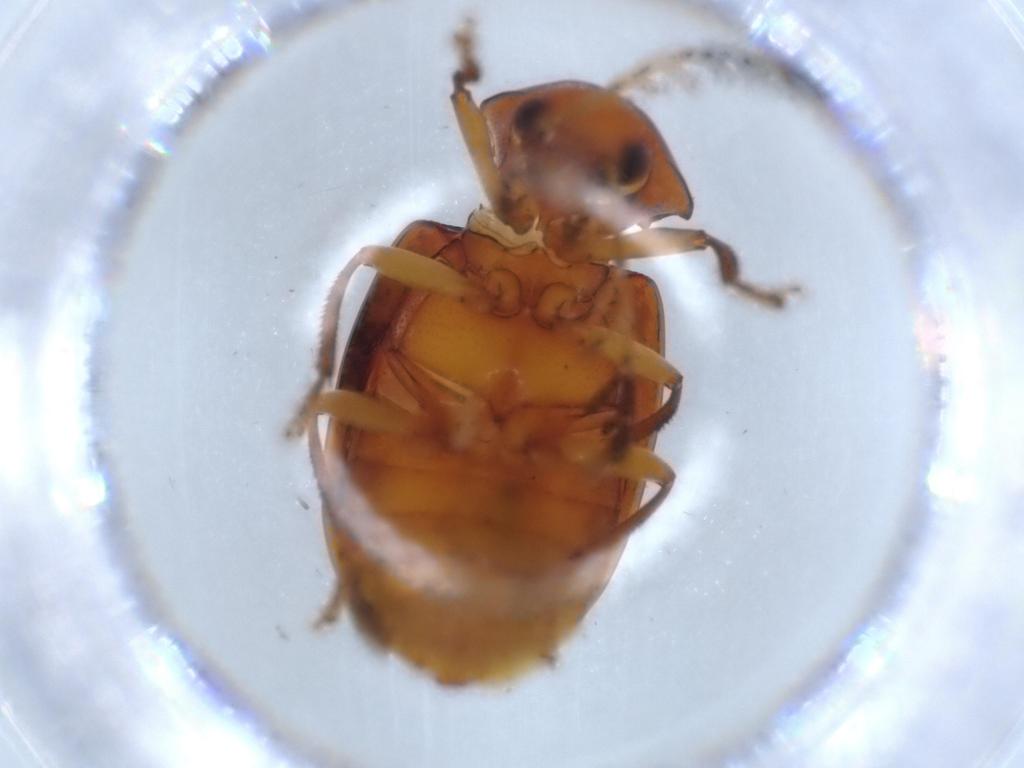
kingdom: Animalia
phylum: Arthropoda
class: Insecta
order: Coleoptera
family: Ptilodactylidae
